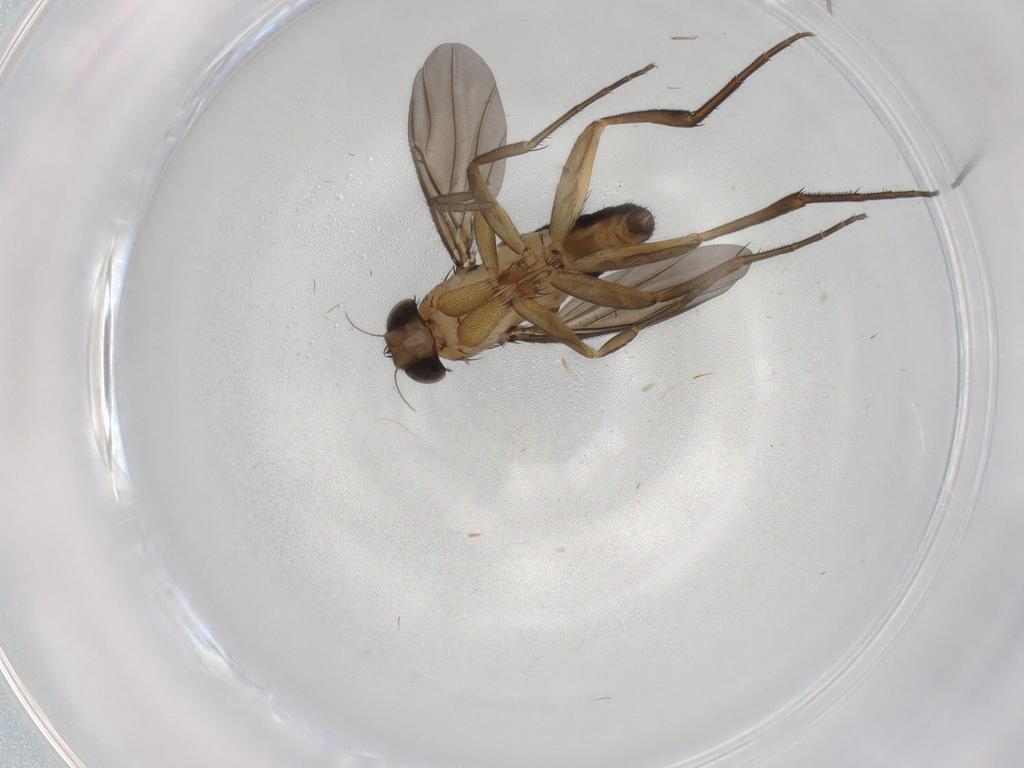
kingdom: Animalia
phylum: Arthropoda
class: Insecta
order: Diptera
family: Phoridae
